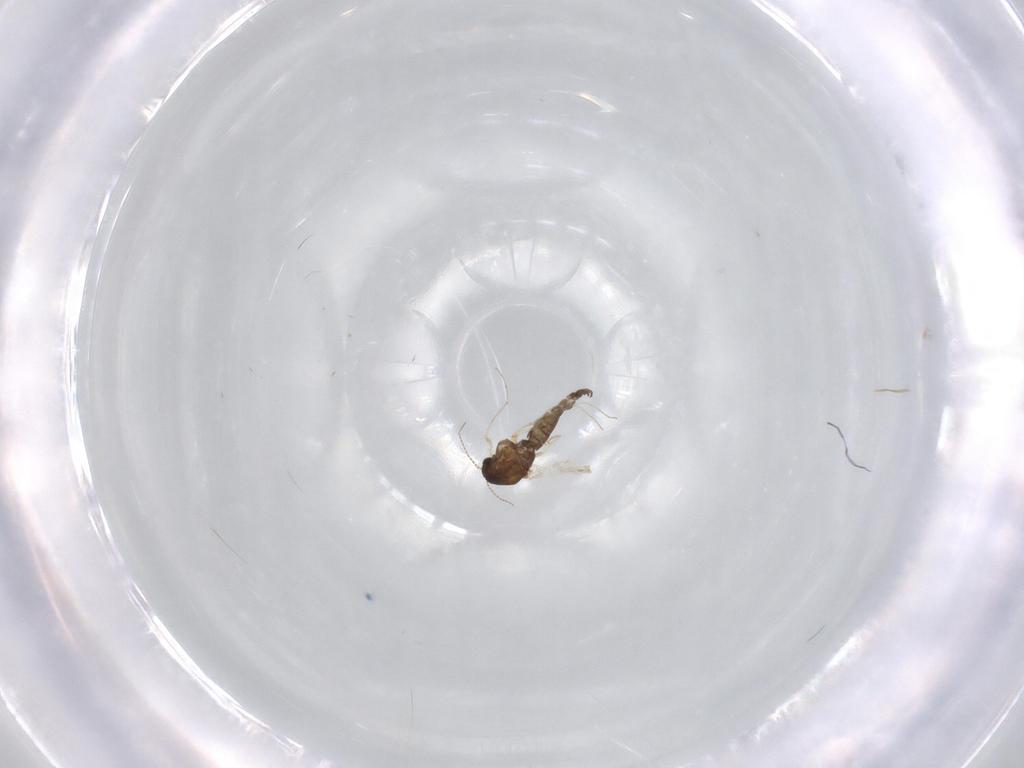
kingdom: Animalia
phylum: Arthropoda
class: Insecta
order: Diptera
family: Chironomidae
